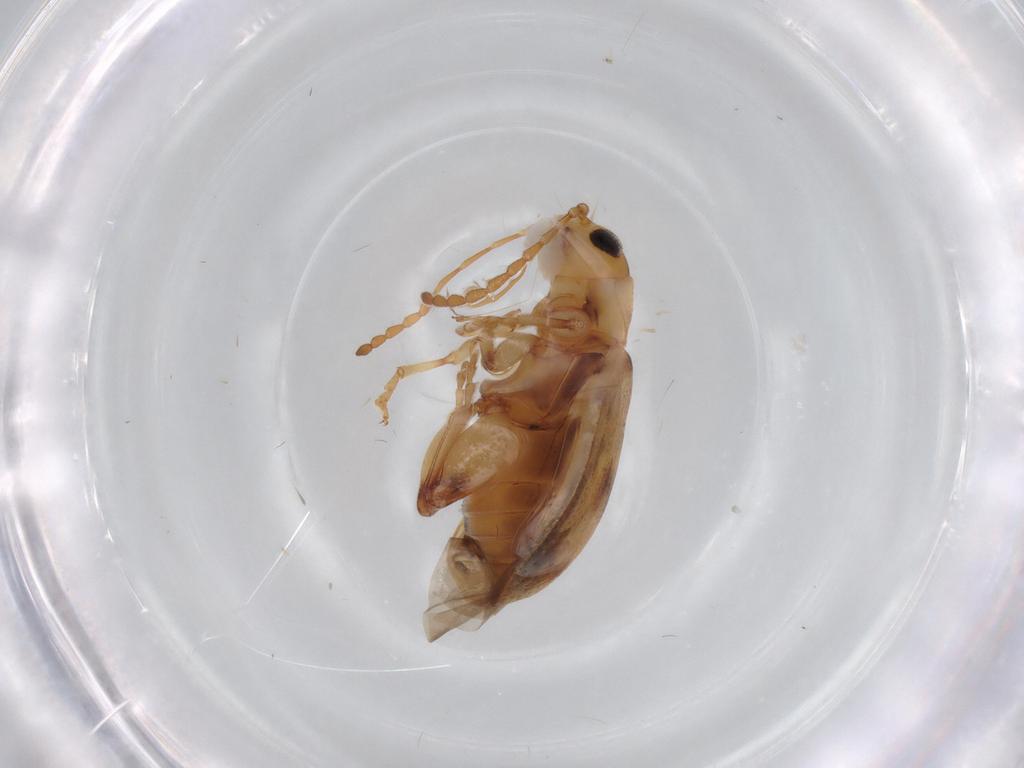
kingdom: Animalia
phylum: Arthropoda
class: Insecta
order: Coleoptera
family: Chrysomelidae
